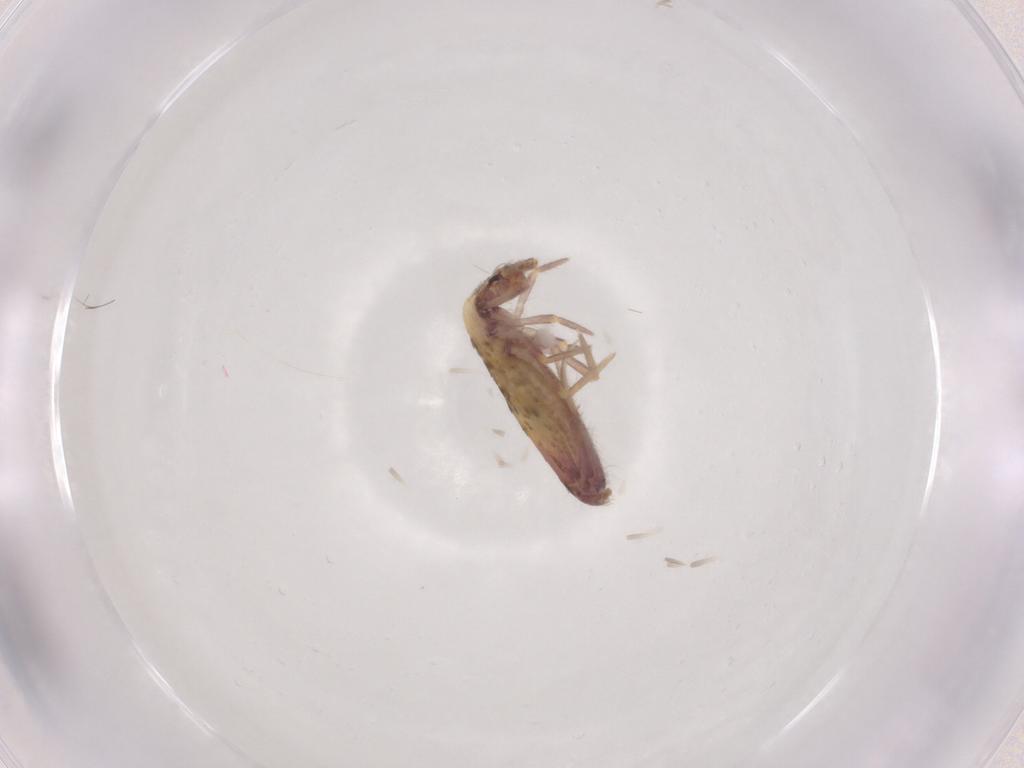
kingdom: Animalia
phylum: Arthropoda
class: Collembola
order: Entomobryomorpha
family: Entomobryidae
